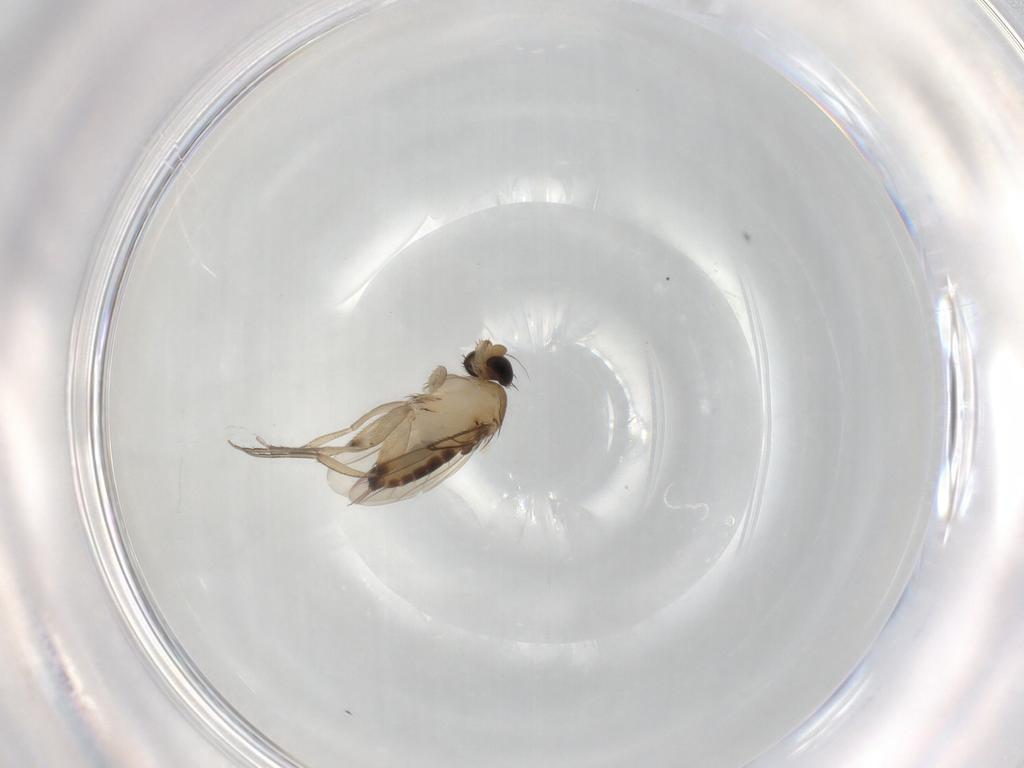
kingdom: Animalia
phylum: Arthropoda
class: Insecta
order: Diptera
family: Phoridae
